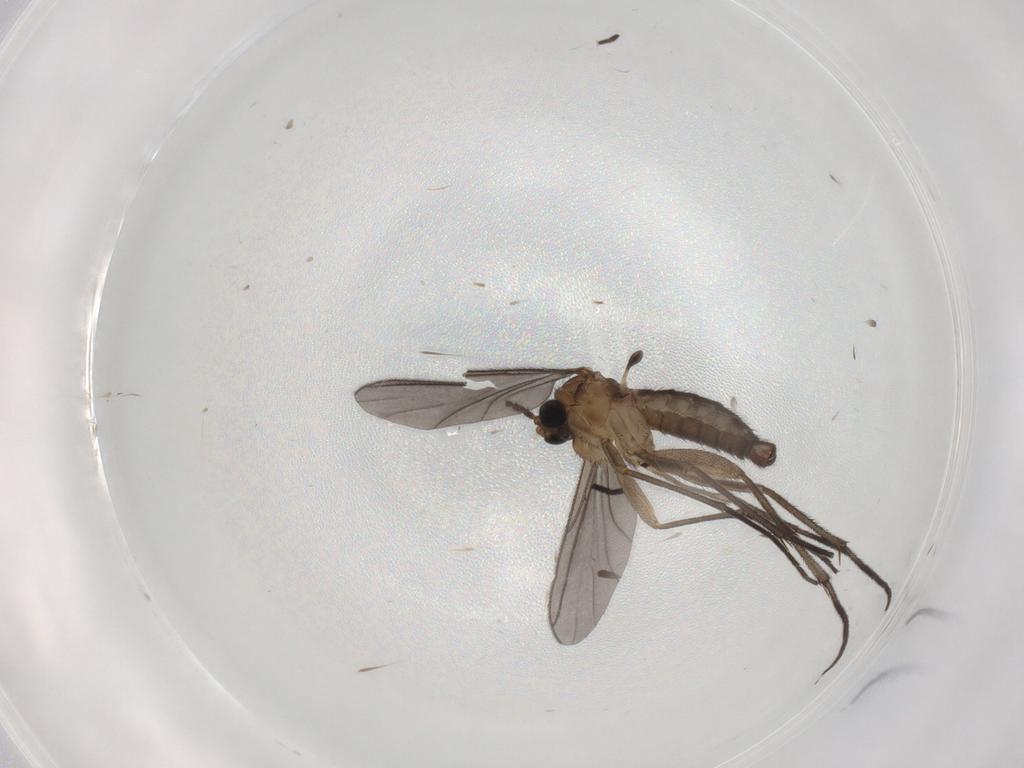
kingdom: Animalia
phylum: Arthropoda
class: Insecta
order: Diptera
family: Sciaridae
